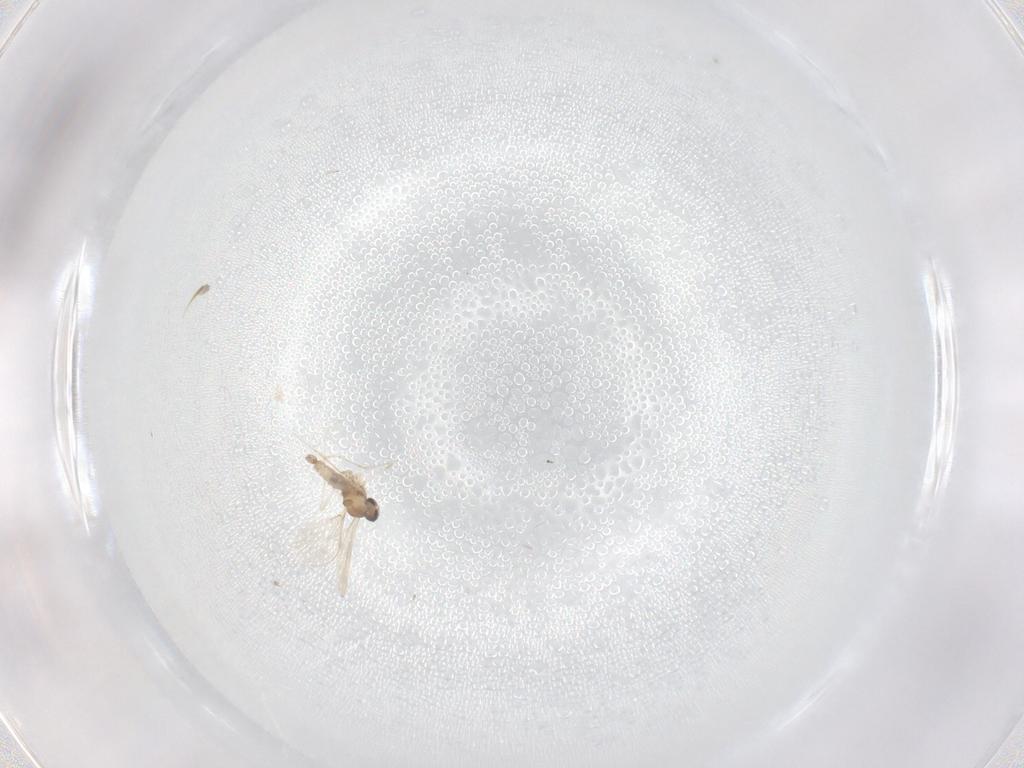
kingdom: Animalia
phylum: Arthropoda
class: Insecta
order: Diptera
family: Cecidomyiidae
